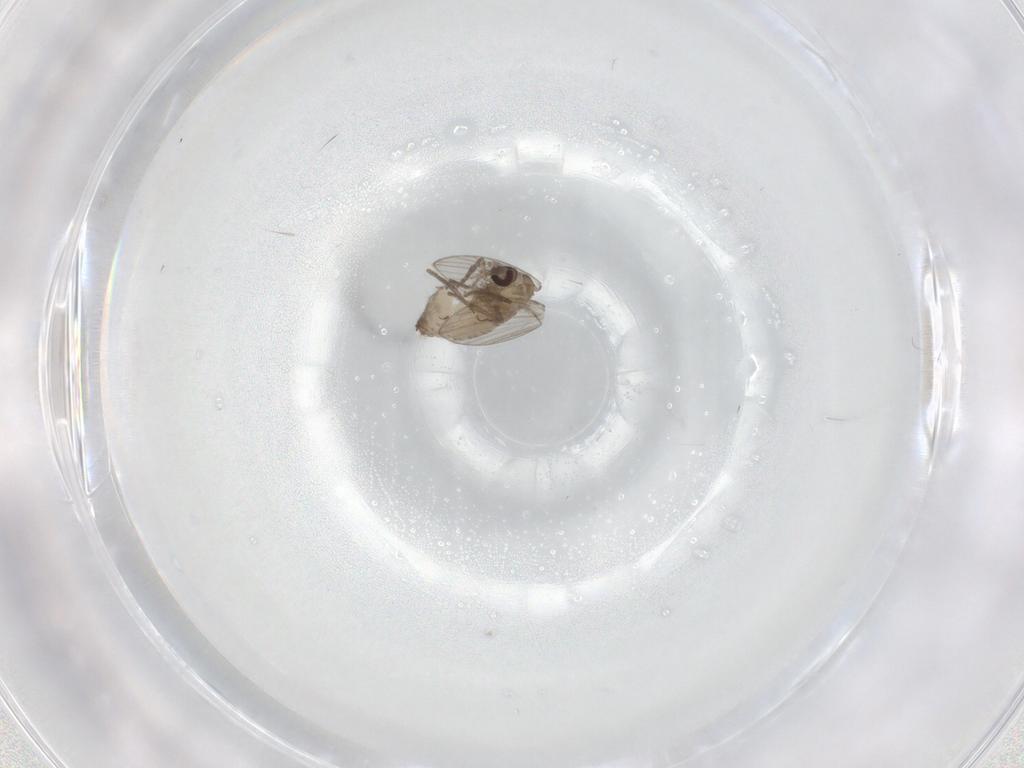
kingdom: Animalia
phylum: Arthropoda
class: Insecta
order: Diptera
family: Psychodidae
